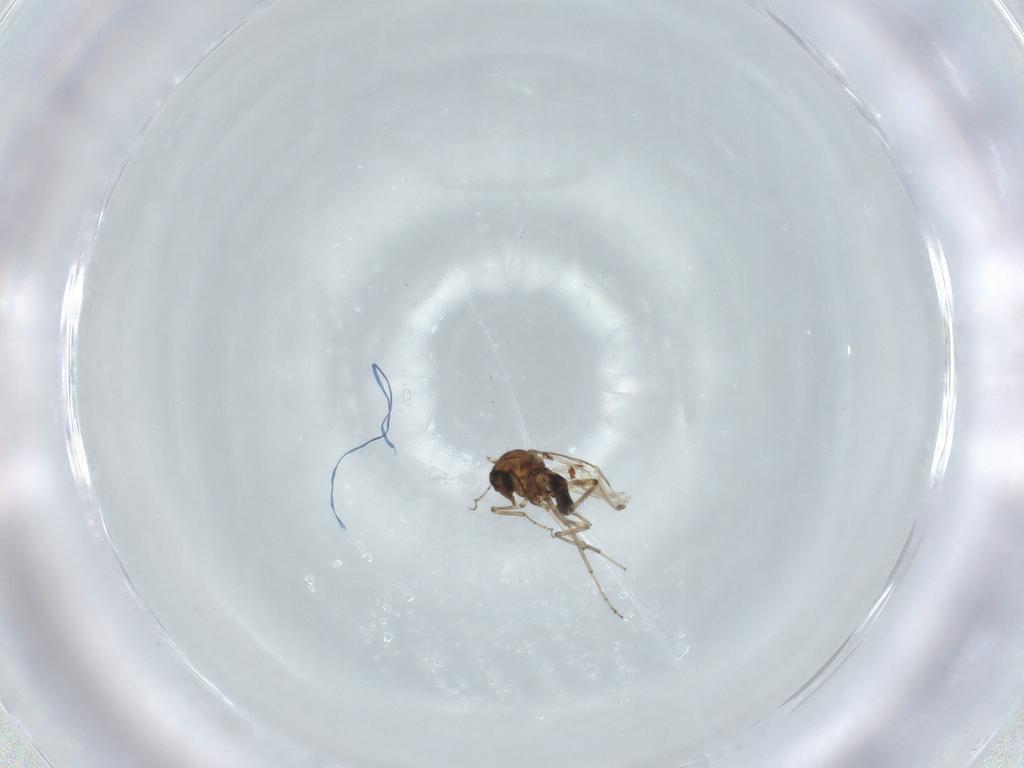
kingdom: Animalia
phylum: Arthropoda
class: Insecta
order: Diptera
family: Phoridae
